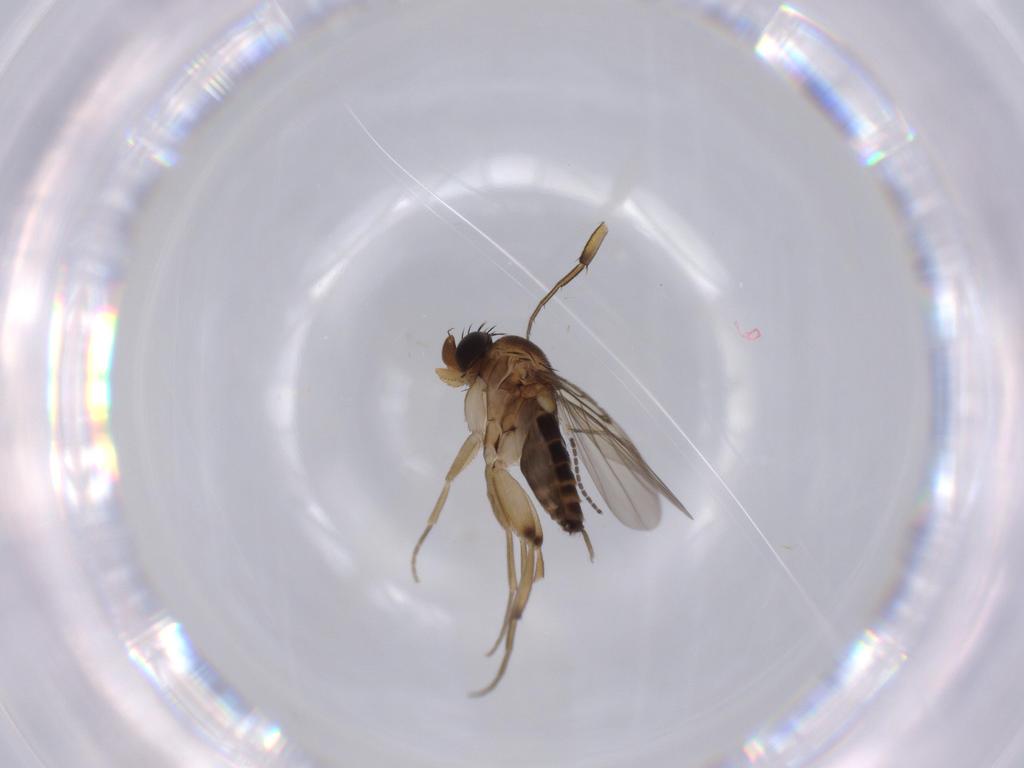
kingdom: Animalia
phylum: Arthropoda
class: Insecta
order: Diptera
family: Phoridae
